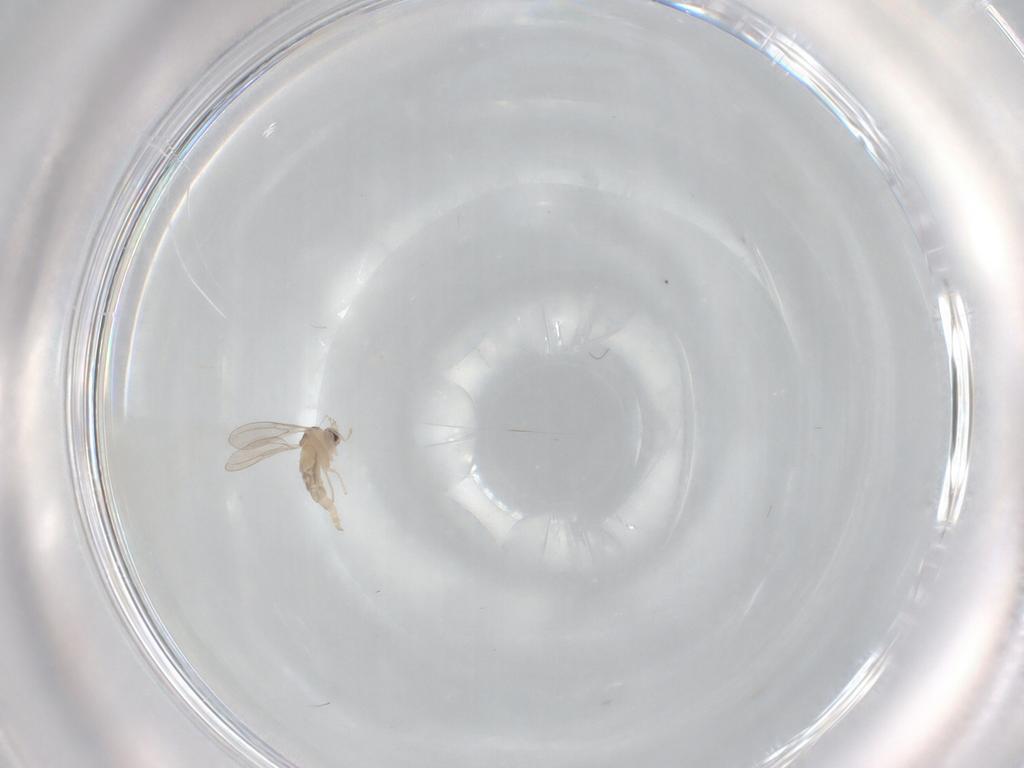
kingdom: Animalia
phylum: Arthropoda
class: Insecta
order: Diptera
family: Cecidomyiidae
